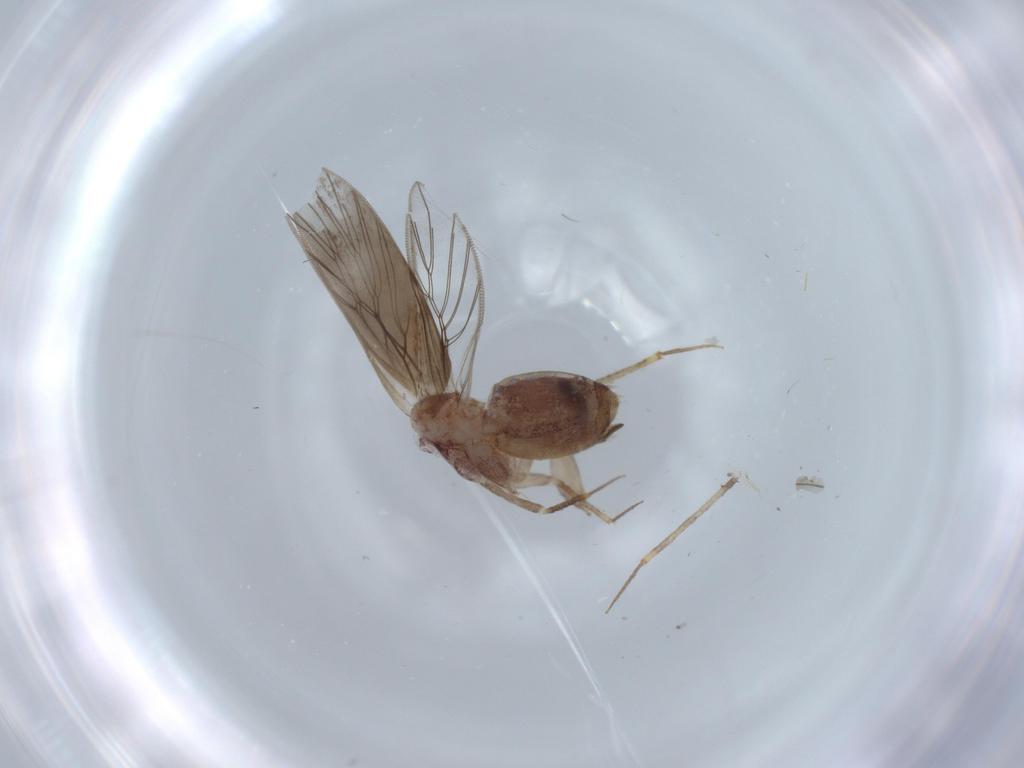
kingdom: Animalia
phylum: Arthropoda
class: Insecta
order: Psocodea
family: Lepidopsocidae
